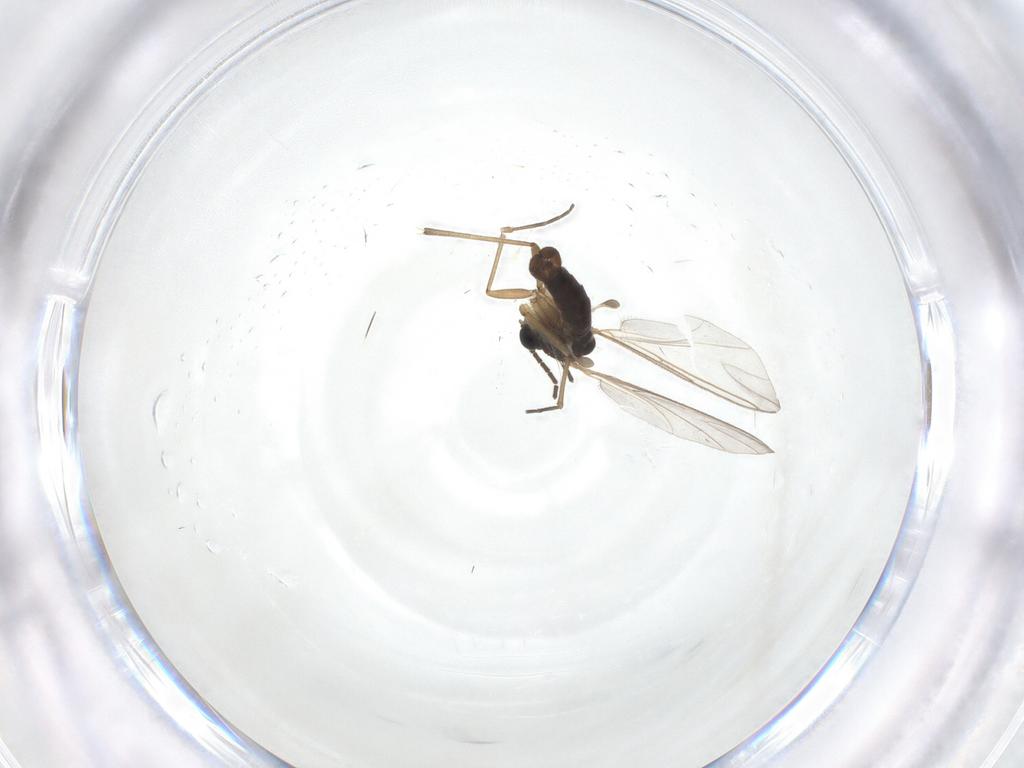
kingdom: Animalia
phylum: Arthropoda
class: Insecta
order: Diptera
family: Sciaridae
